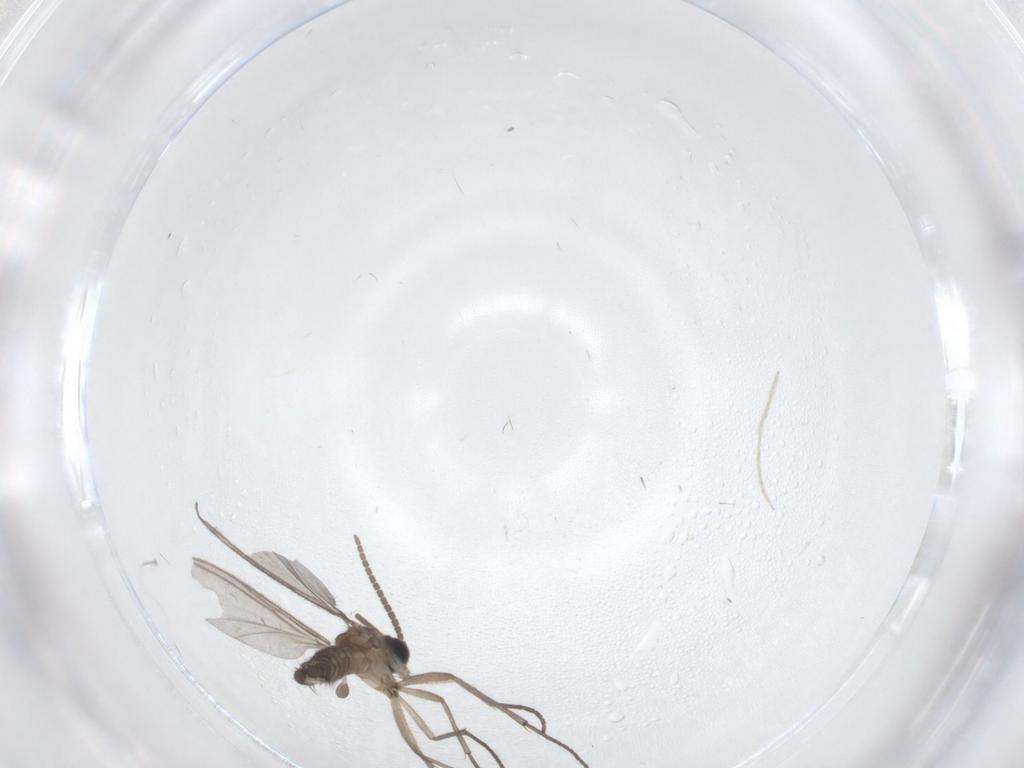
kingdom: Animalia
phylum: Arthropoda
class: Insecta
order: Diptera
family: Chironomidae
